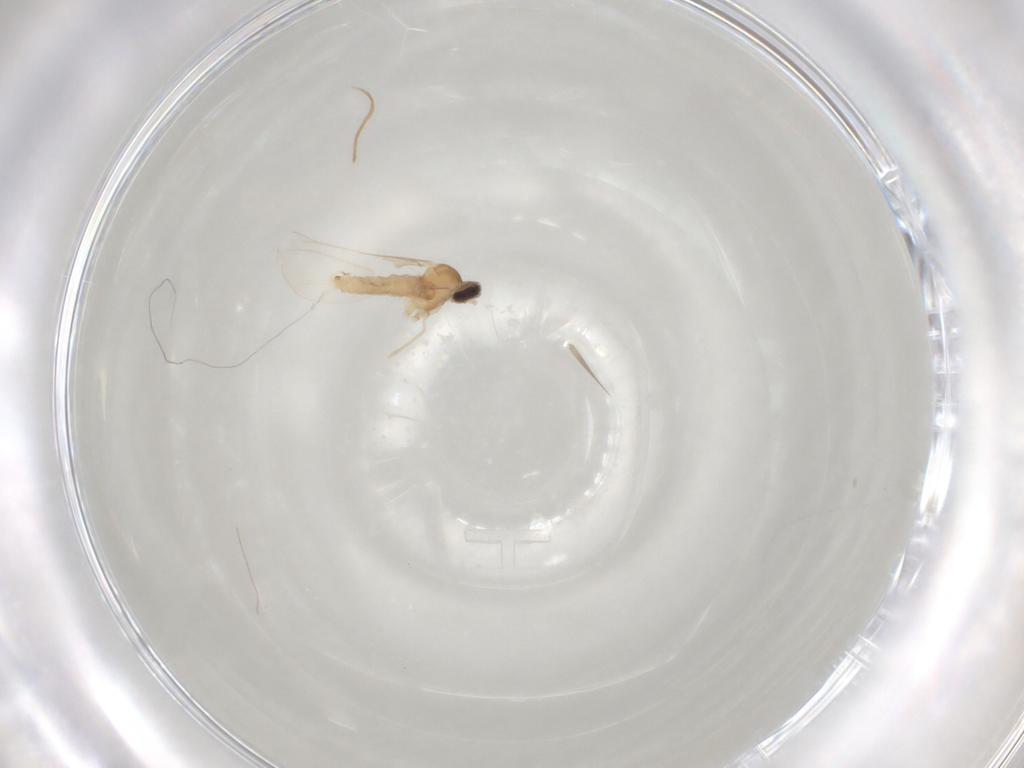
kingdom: Animalia
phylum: Arthropoda
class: Insecta
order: Diptera
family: Cecidomyiidae
